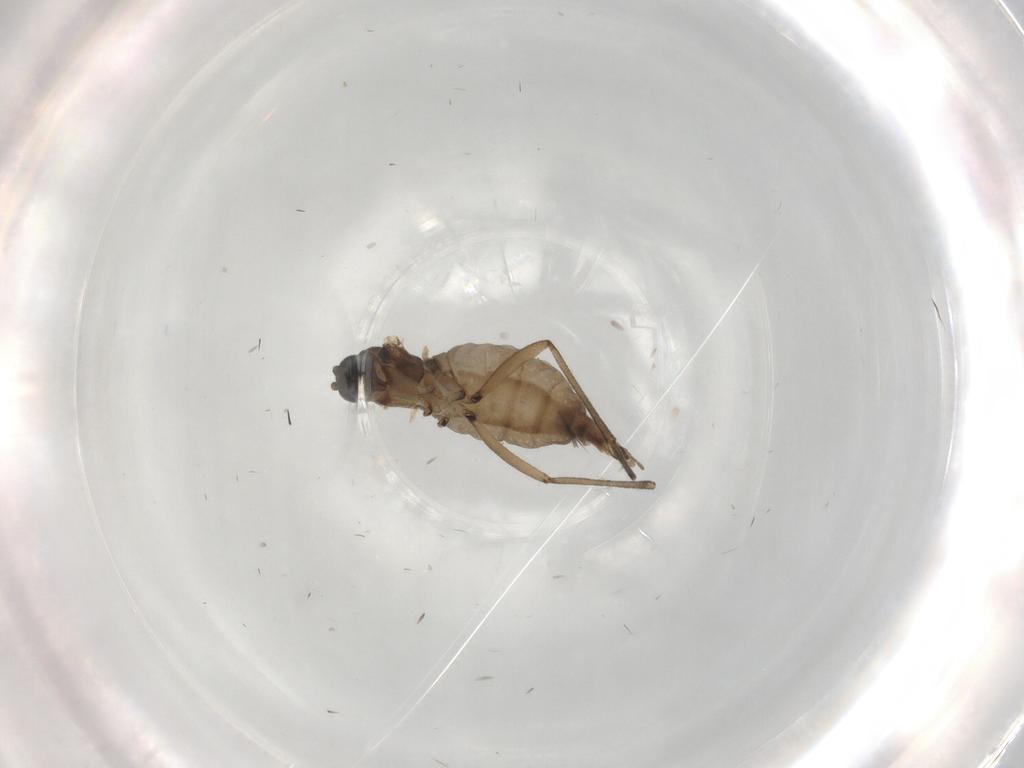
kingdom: Animalia
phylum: Arthropoda
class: Insecta
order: Diptera
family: Sciaridae
